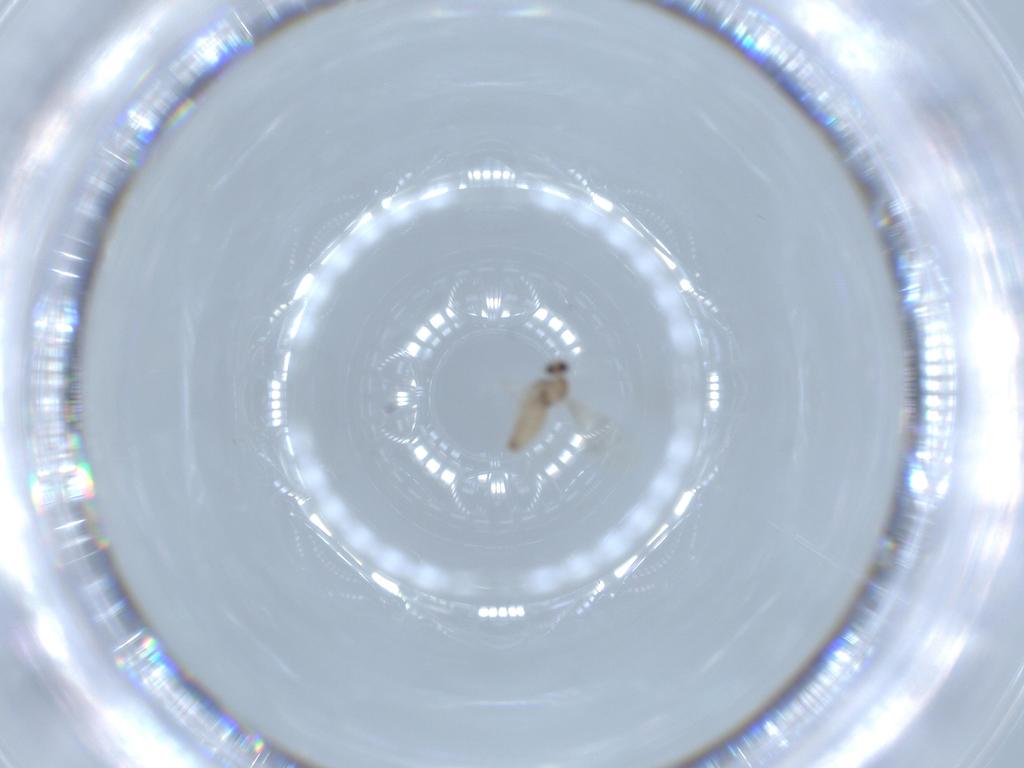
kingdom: Animalia
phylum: Arthropoda
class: Insecta
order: Diptera
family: Cecidomyiidae
